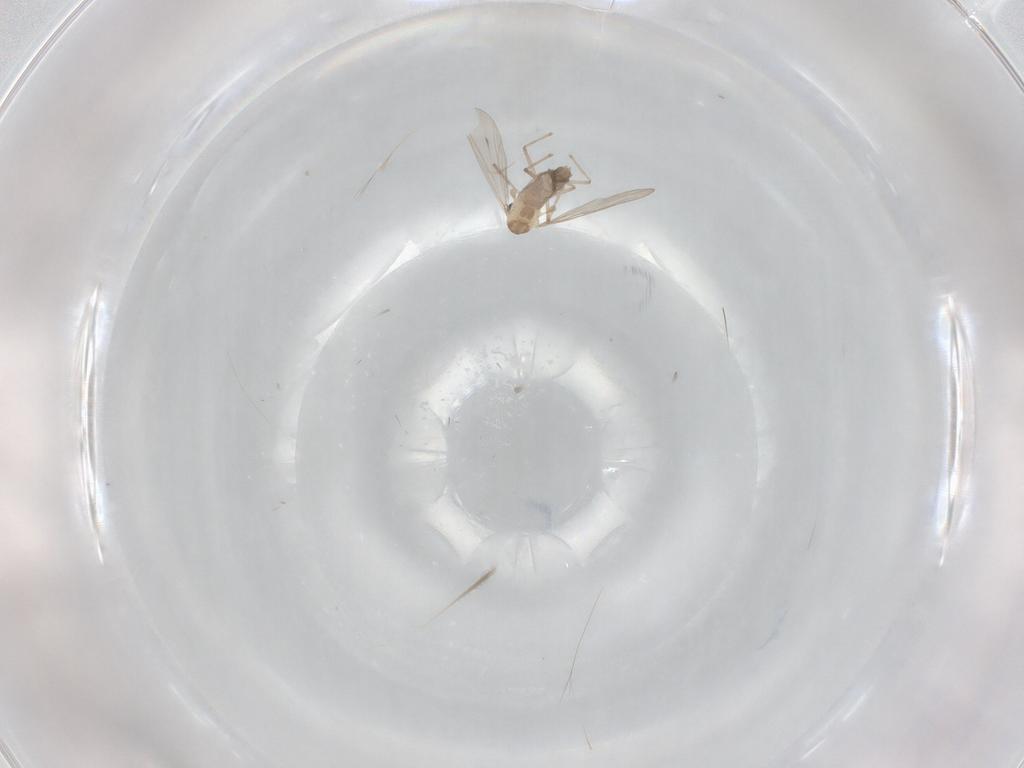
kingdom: Animalia
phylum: Arthropoda
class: Insecta
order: Diptera
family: Chironomidae
